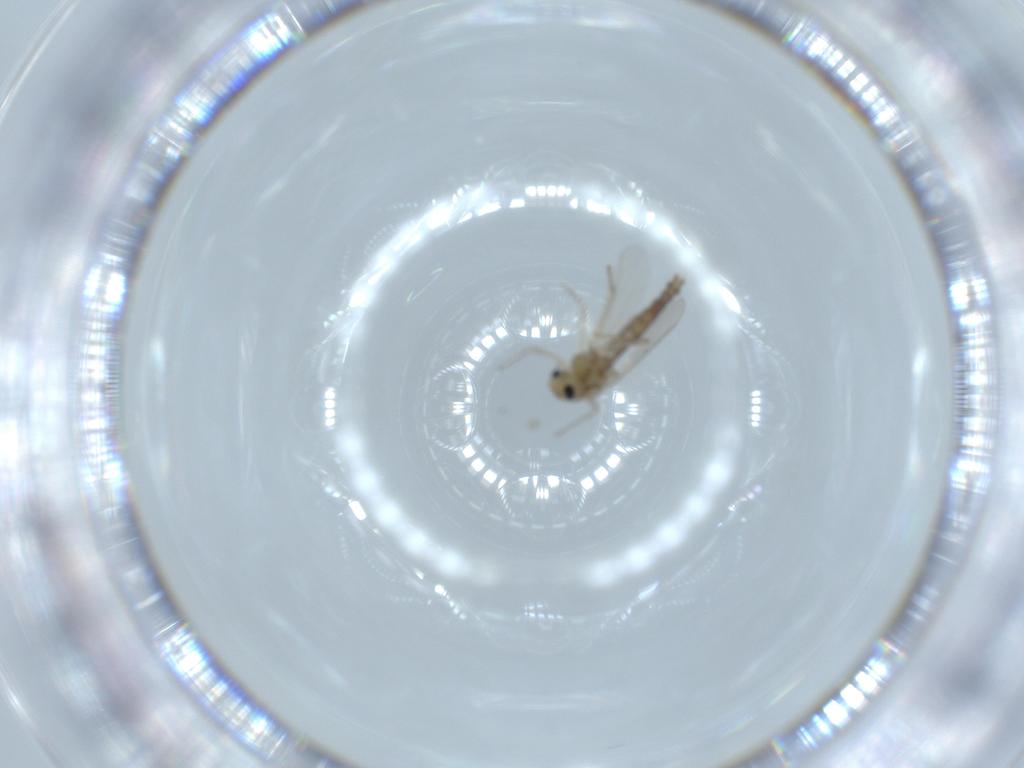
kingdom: Animalia
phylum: Arthropoda
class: Insecta
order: Diptera
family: Chironomidae
